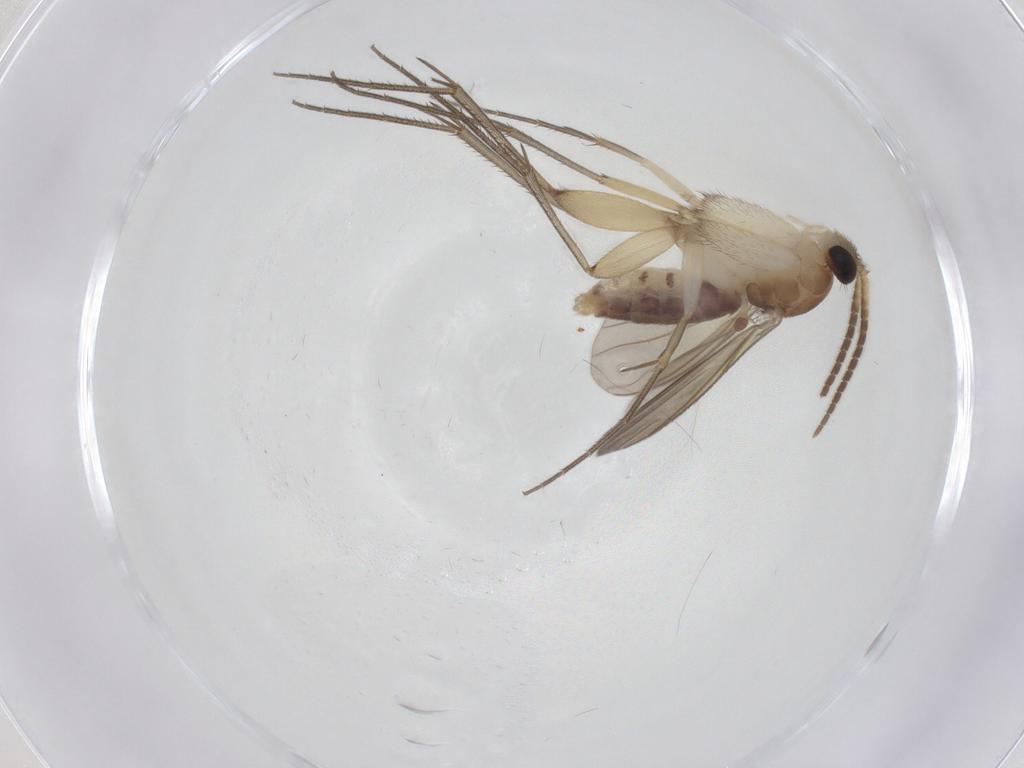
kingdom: Animalia
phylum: Arthropoda
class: Insecta
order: Diptera
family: Mycetophilidae
